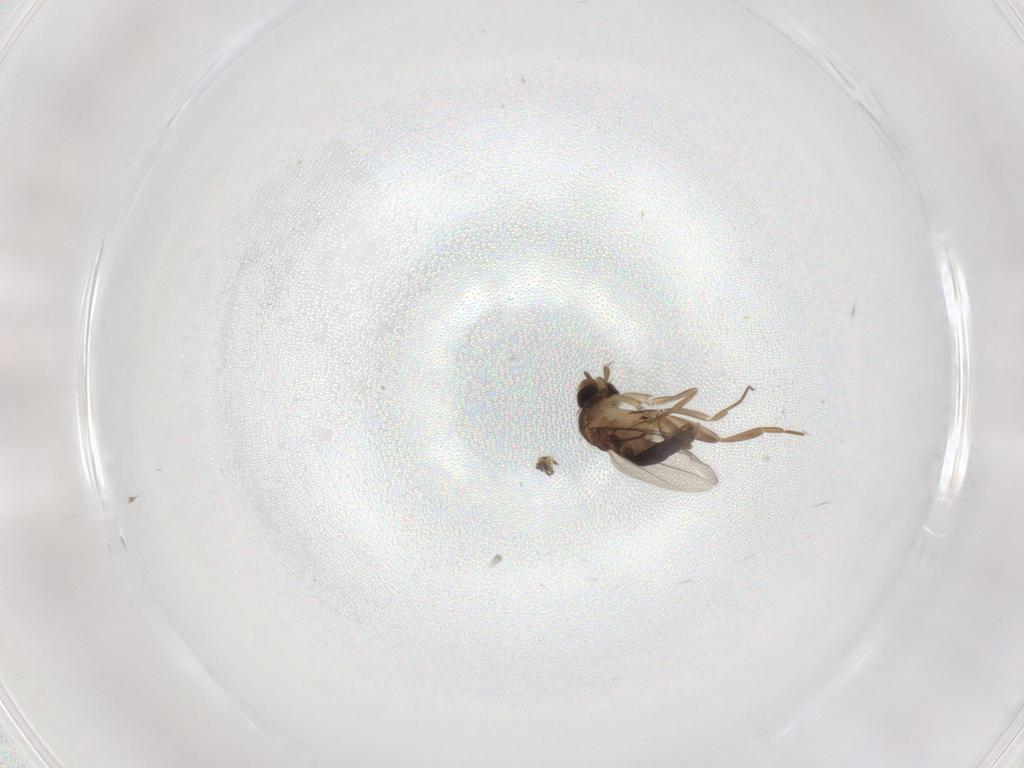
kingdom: Animalia
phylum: Arthropoda
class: Insecta
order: Diptera
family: Phoridae
